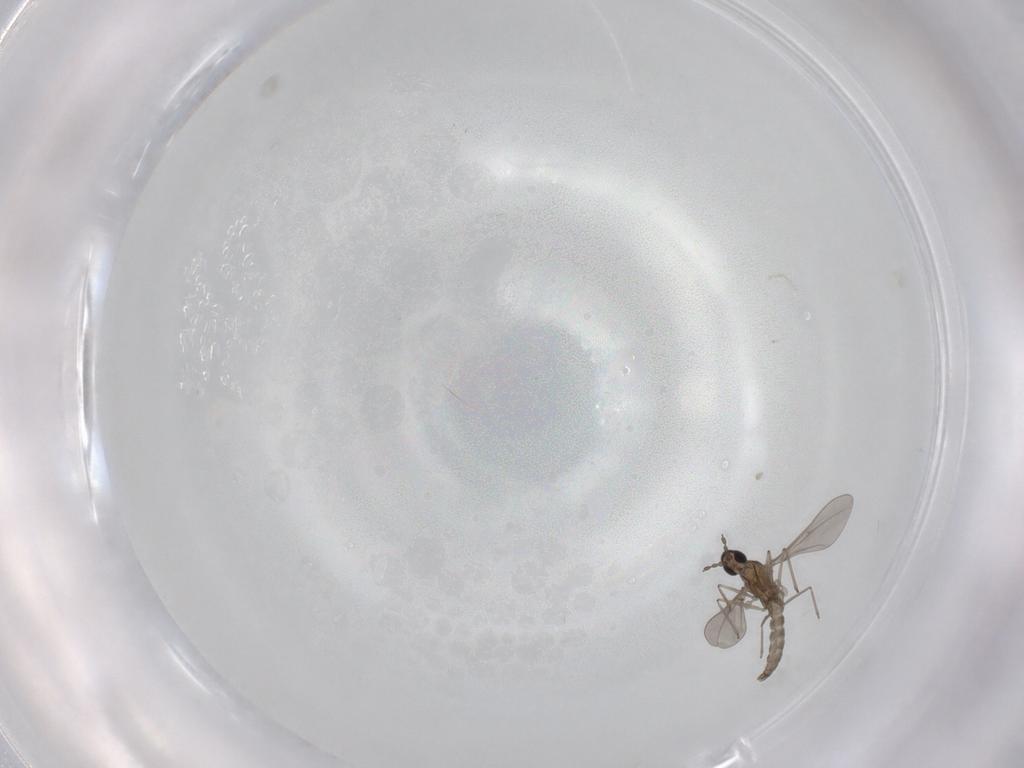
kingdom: Animalia
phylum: Arthropoda
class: Insecta
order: Diptera
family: Cecidomyiidae
